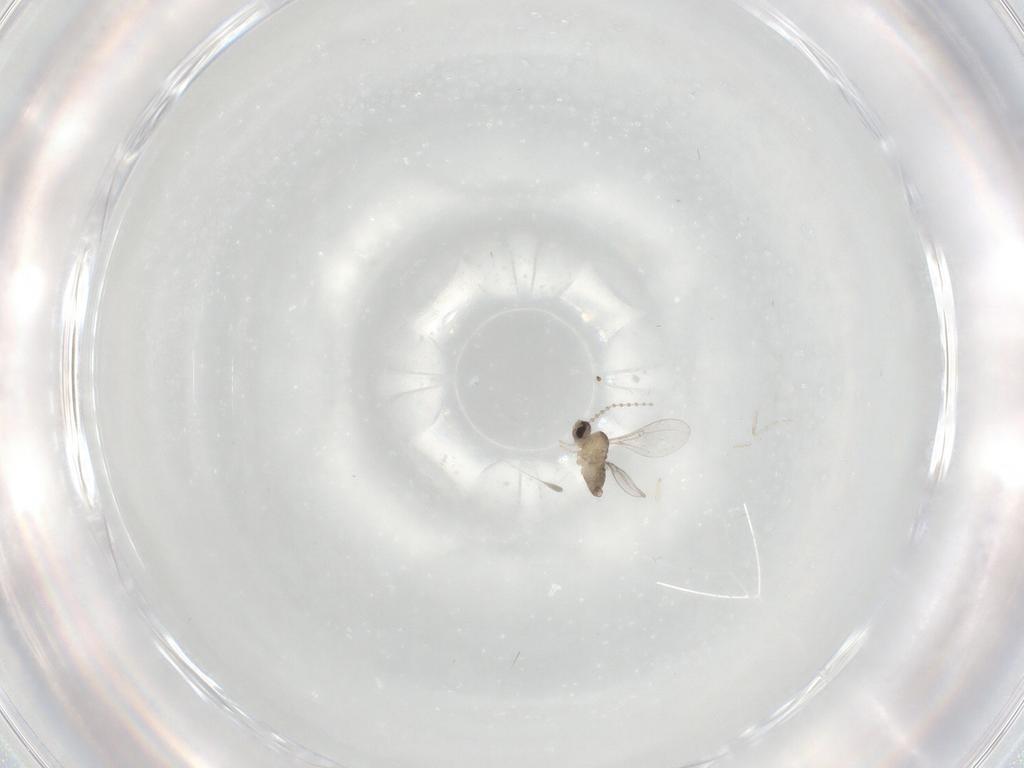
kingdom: Animalia
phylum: Arthropoda
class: Insecta
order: Diptera
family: Cecidomyiidae
